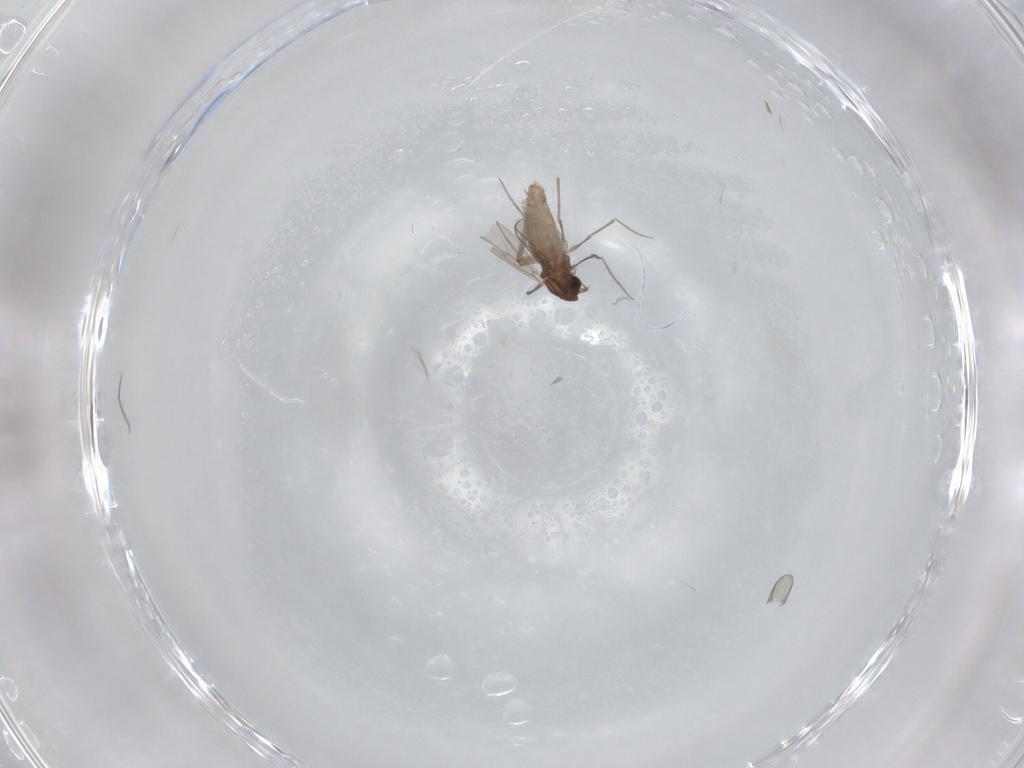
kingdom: Animalia
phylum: Arthropoda
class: Insecta
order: Diptera
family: Chironomidae
